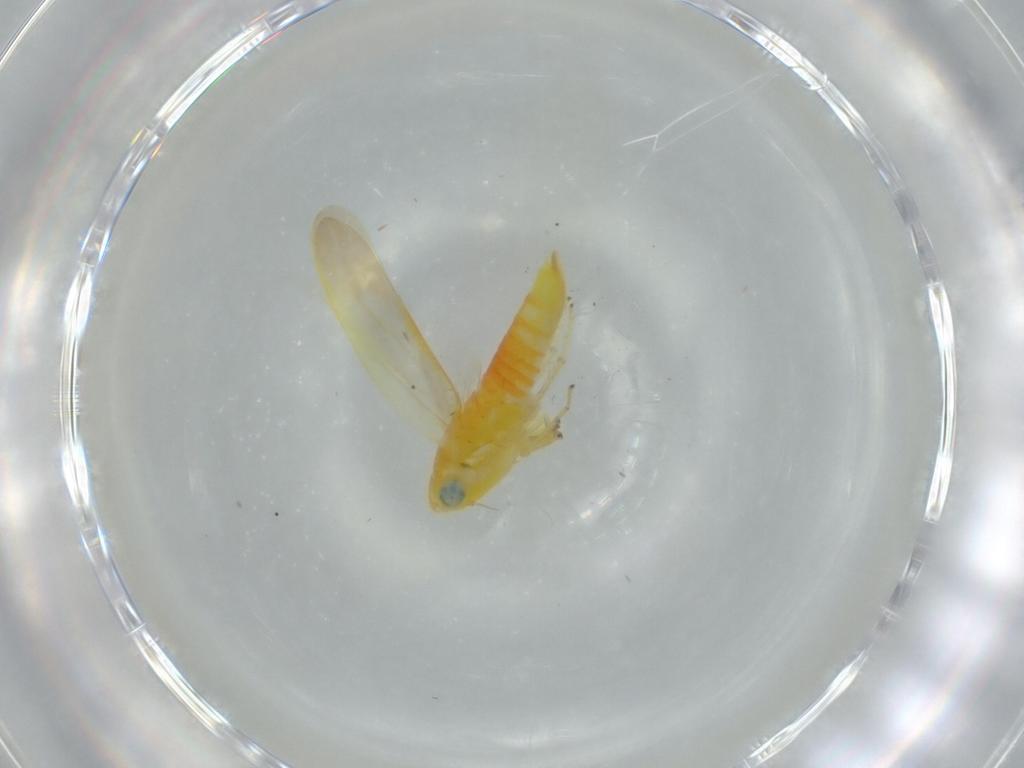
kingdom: Animalia
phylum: Arthropoda
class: Insecta
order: Hemiptera
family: Cicadellidae
